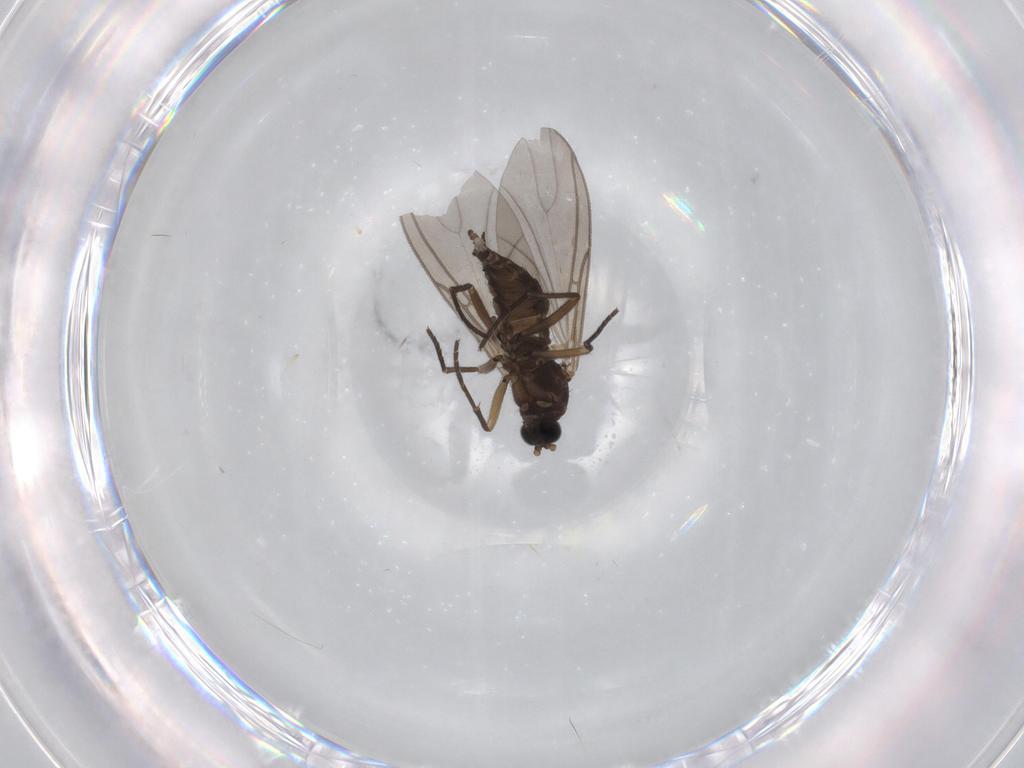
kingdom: Animalia
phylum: Arthropoda
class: Insecta
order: Diptera
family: Sciaridae
